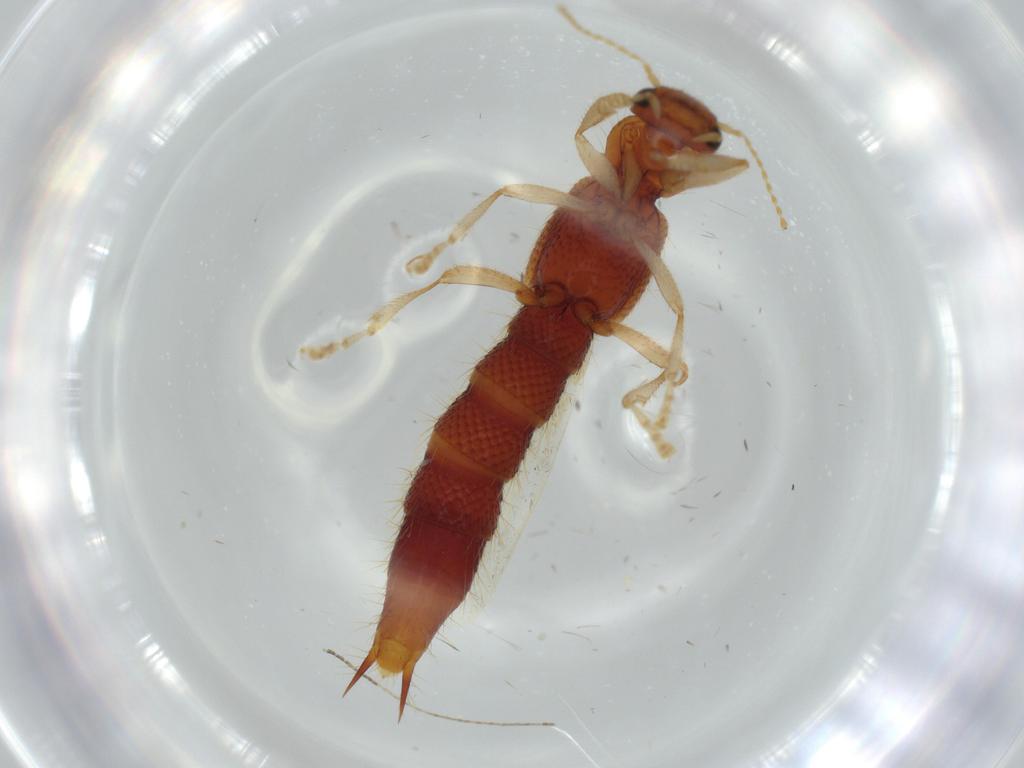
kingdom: Animalia
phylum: Arthropoda
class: Insecta
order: Coleoptera
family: Staphylinidae
